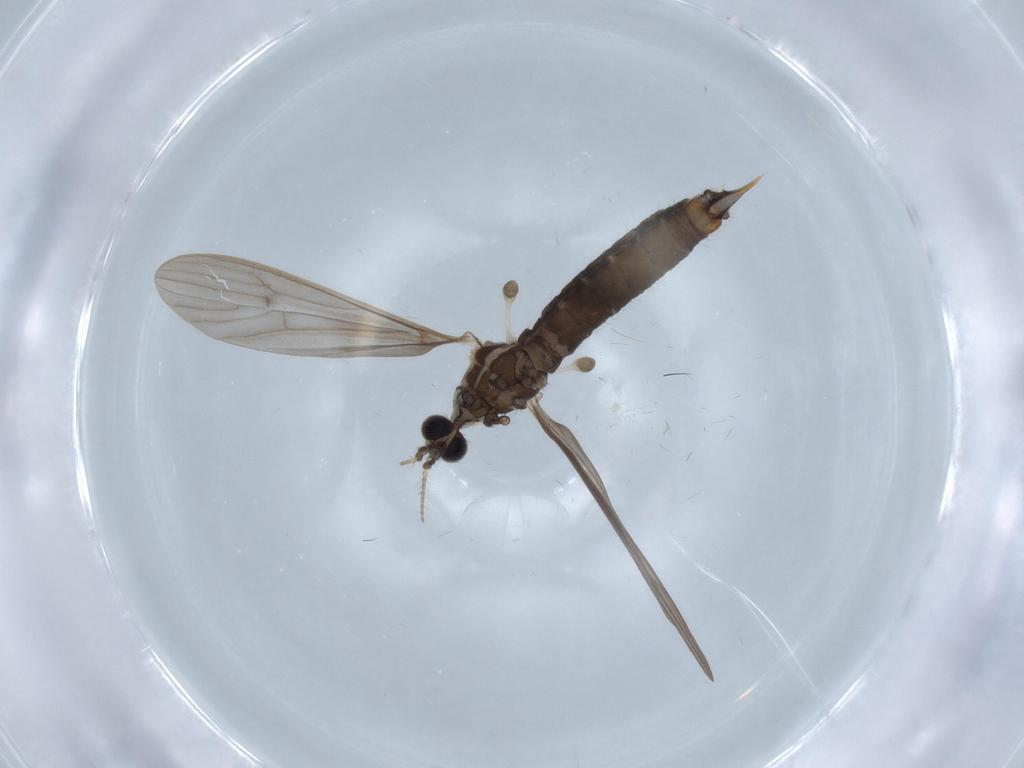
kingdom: Animalia
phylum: Arthropoda
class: Insecta
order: Diptera
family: Limoniidae
